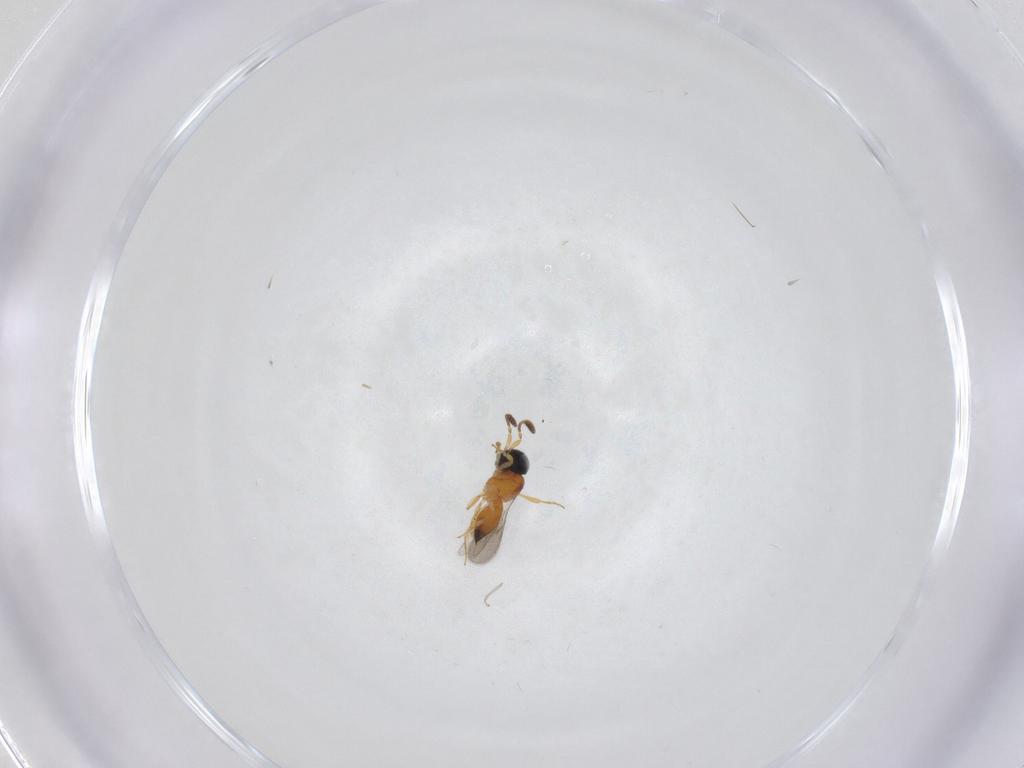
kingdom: Animalia
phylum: Arthropoda
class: Insecta
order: Hymenoptera
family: Scelionidae
